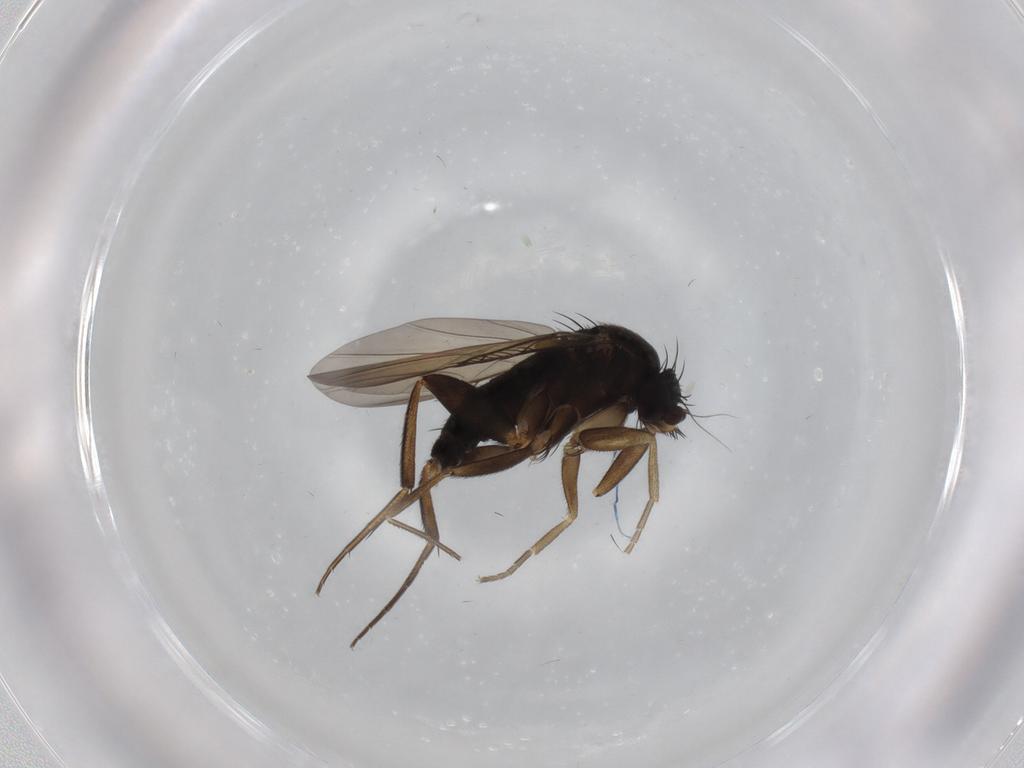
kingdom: Animalia
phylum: Arthropoda
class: Insecta
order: Diptera
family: Phoridae
